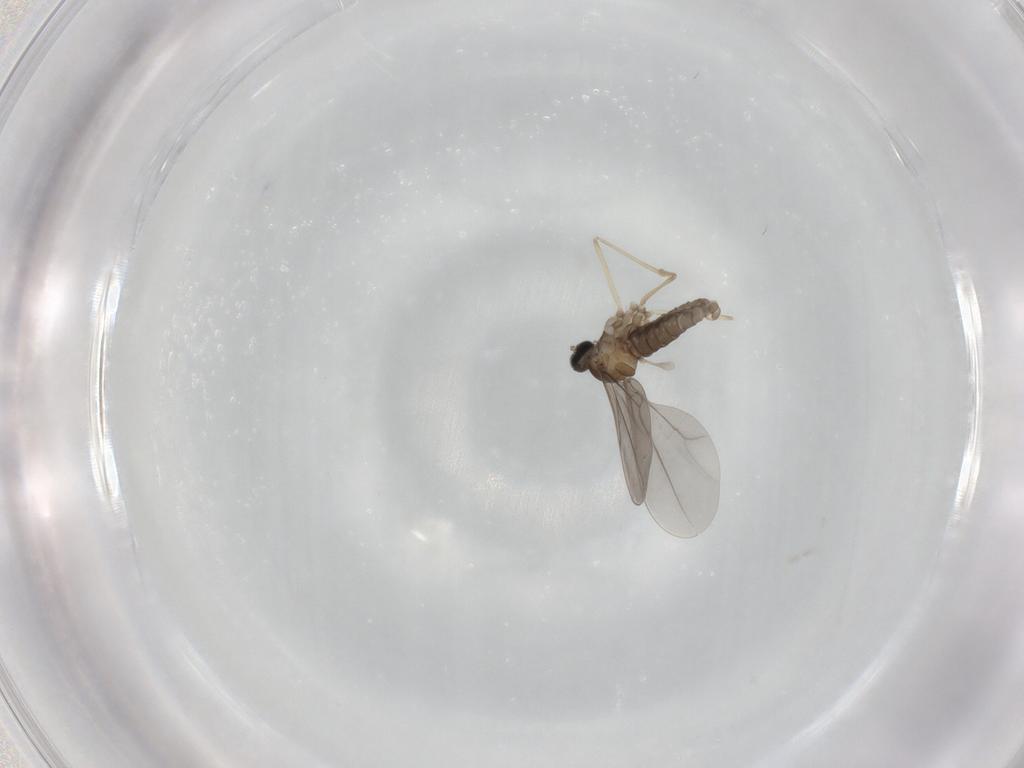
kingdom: Animalia
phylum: Arthropoda
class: Insecta
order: Diptera
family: Cecidomyiidae
